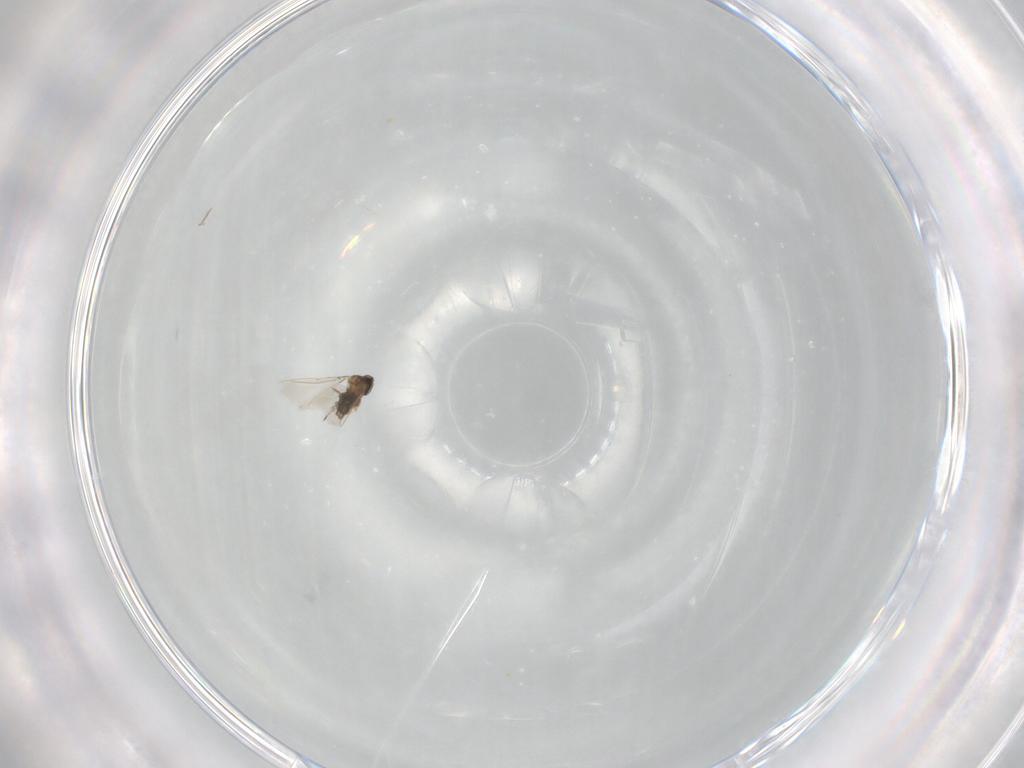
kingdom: Animalia
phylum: Arthropoda
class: Insecta
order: Diptera
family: Cecidomyiidae
